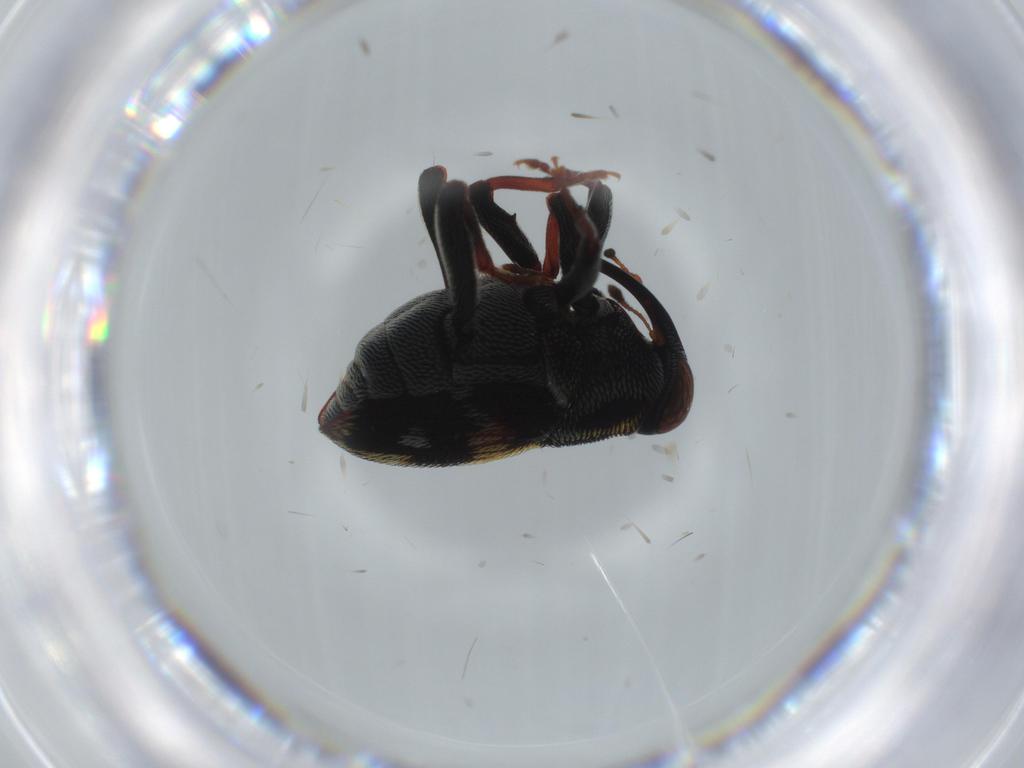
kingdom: Animalia
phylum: Arthropoda
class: Insecta
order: Coleoptera
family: Curculionidae
